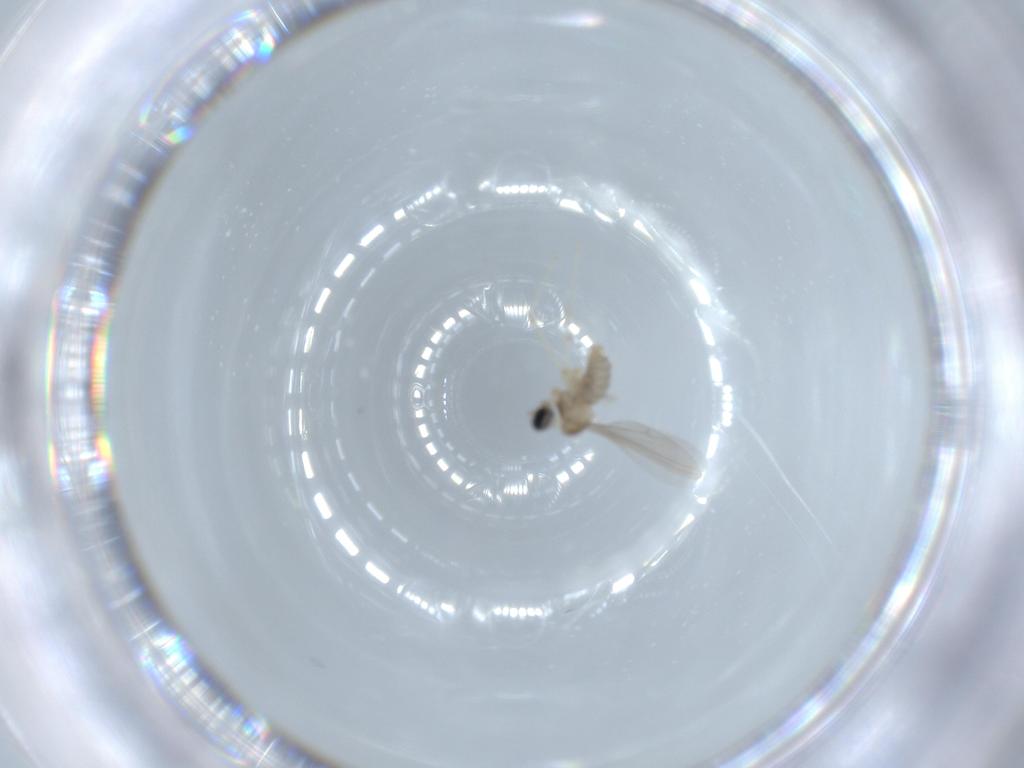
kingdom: Animalia
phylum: Arthropoda
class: Insecta
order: Diptera
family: Cecidomyiidae
